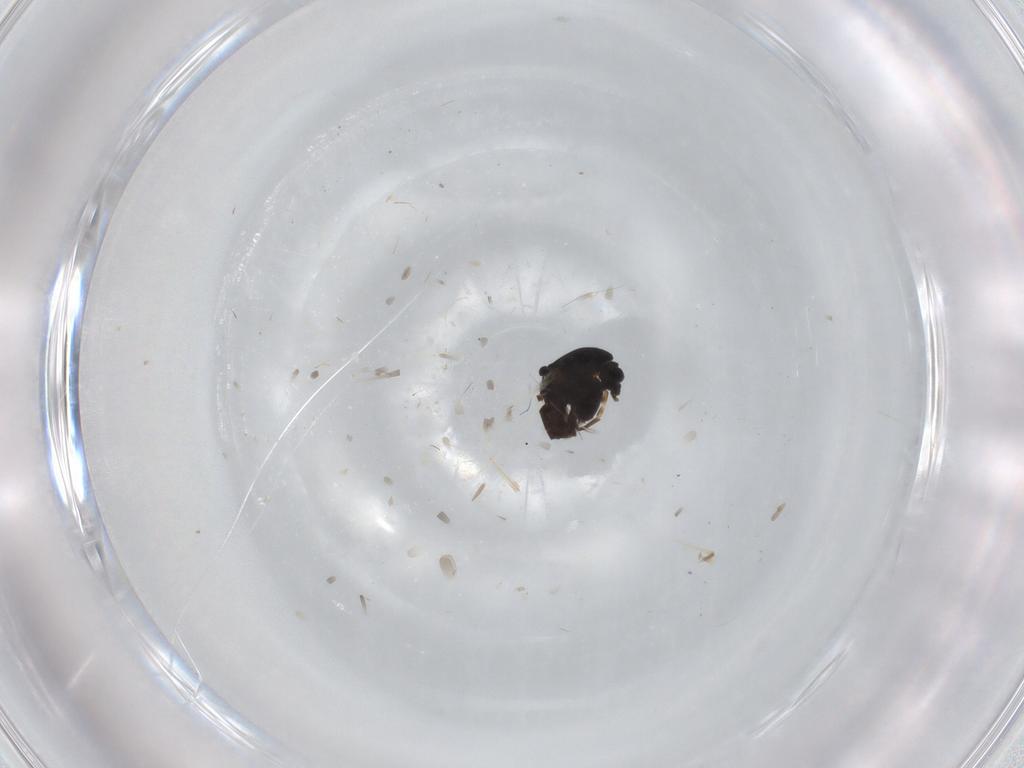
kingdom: Animalia
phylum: Arthropoda
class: Insecta
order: Diptera
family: Chironomidae
